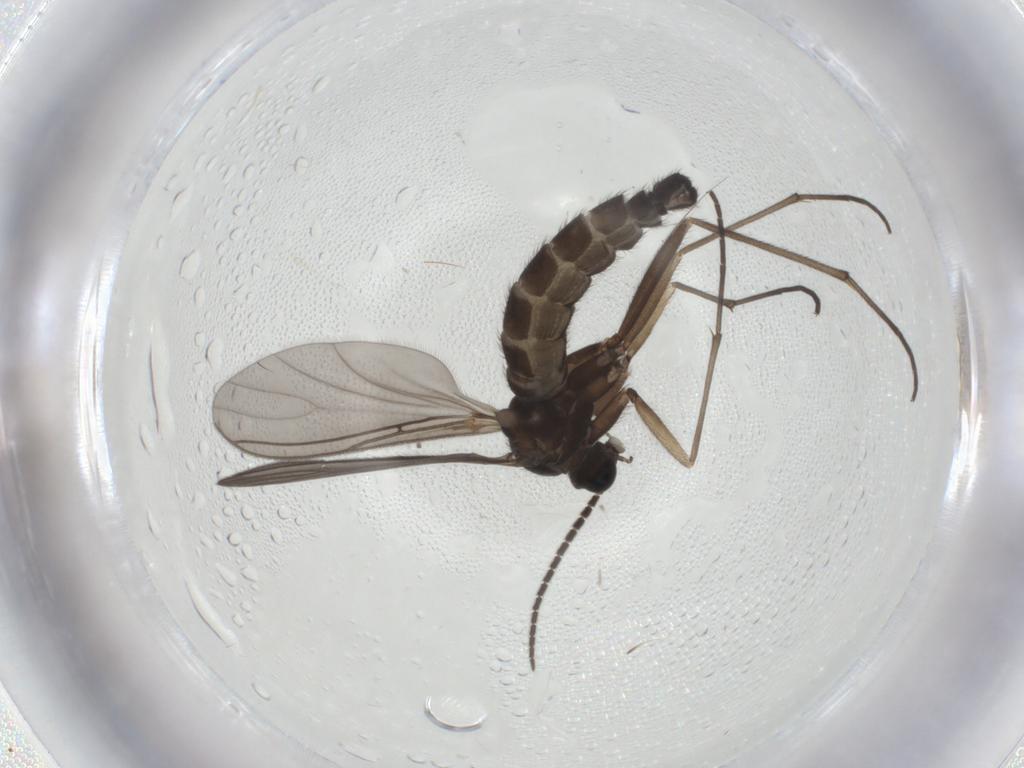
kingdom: Animalia
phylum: Arthropoda
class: Insecta
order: Diptera
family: Sciaridae
